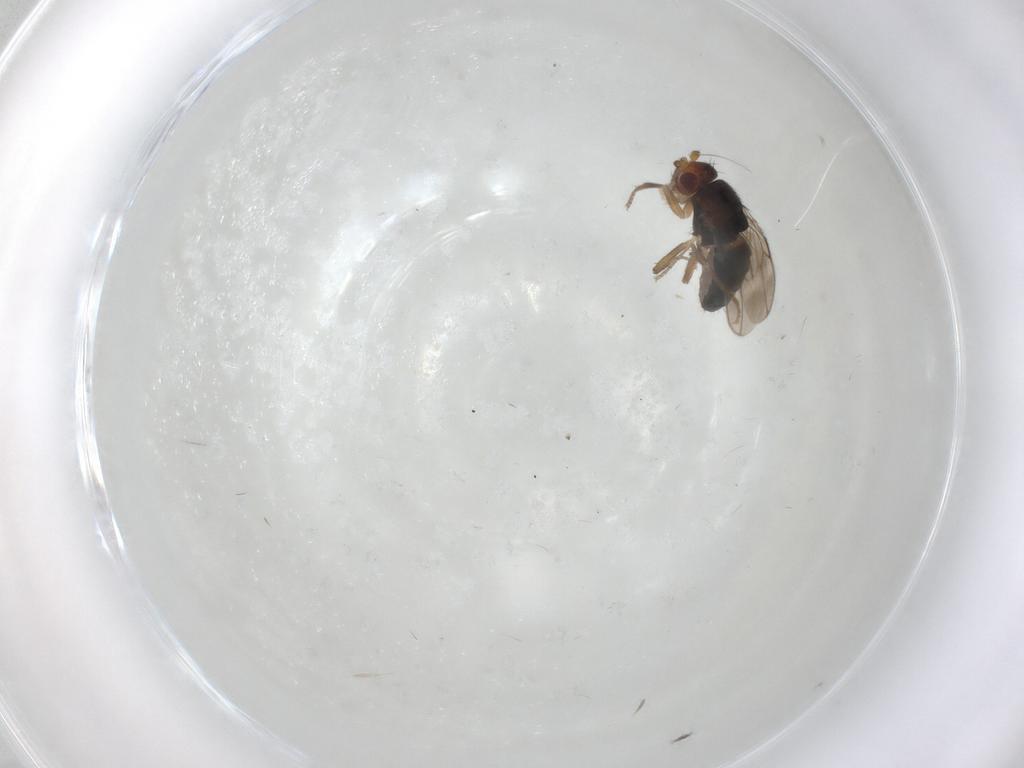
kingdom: Animalia
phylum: Arthropoda
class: Insecta
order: Diptera
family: Sphaeroceridae
